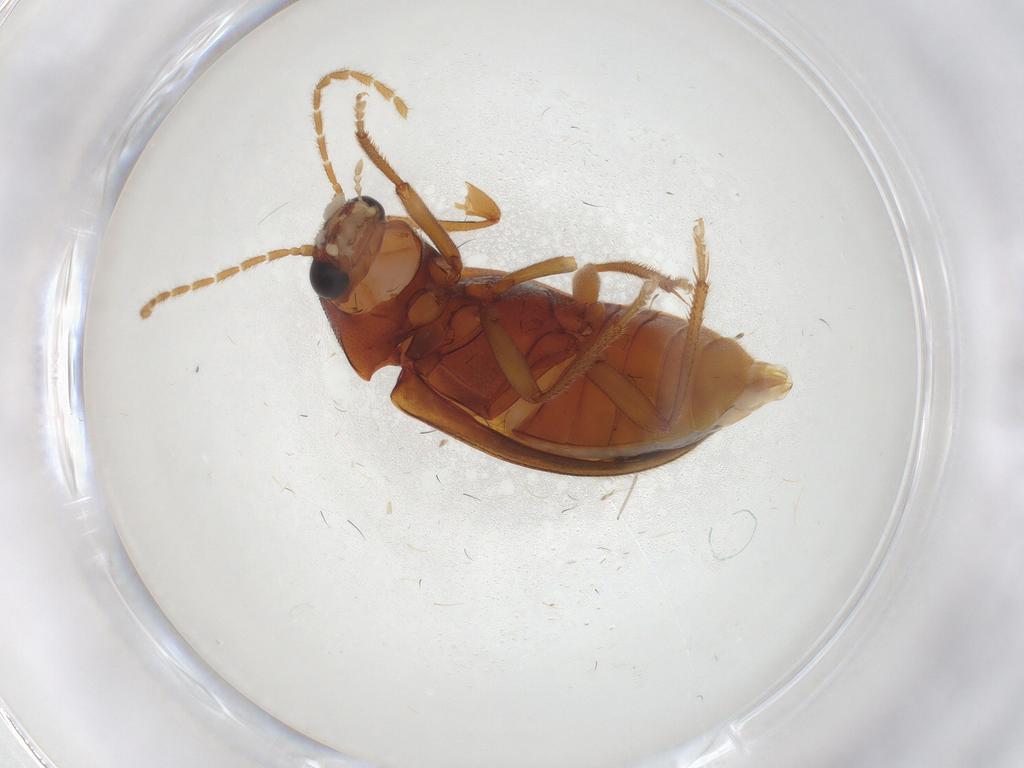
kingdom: Animalia
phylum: Arthropoda
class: Insecta
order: Coleoptera
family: Ptilodactylidae
